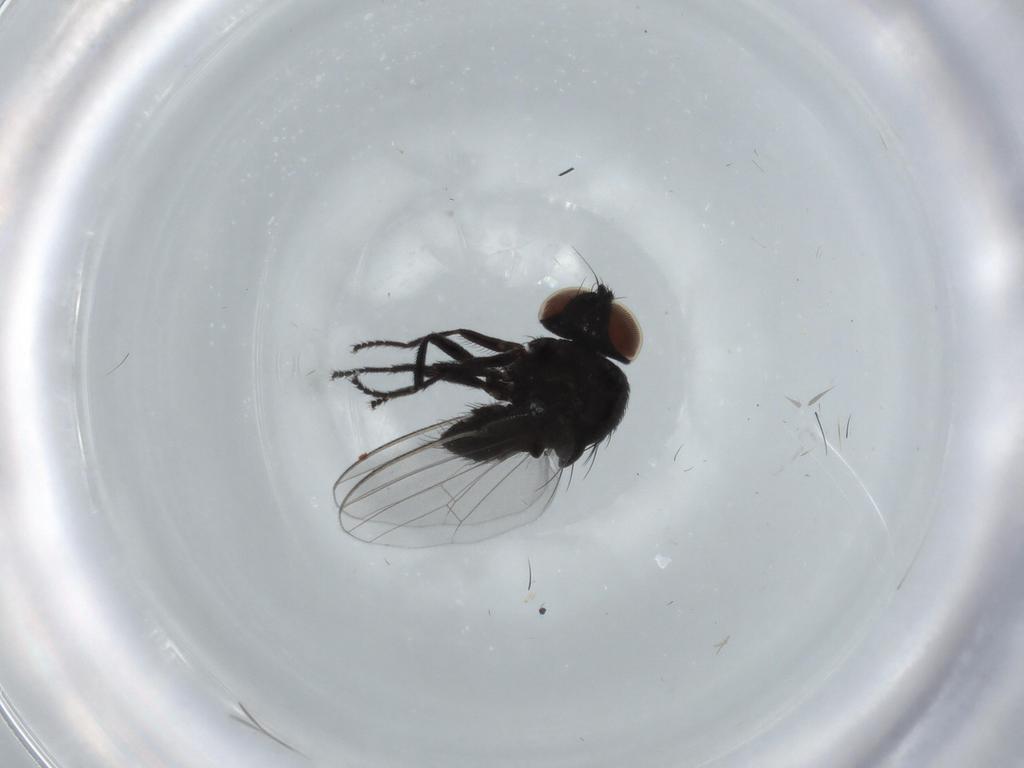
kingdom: Animalia
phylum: Arthropoda
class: Insecta
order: Diptera
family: Milichiidae
